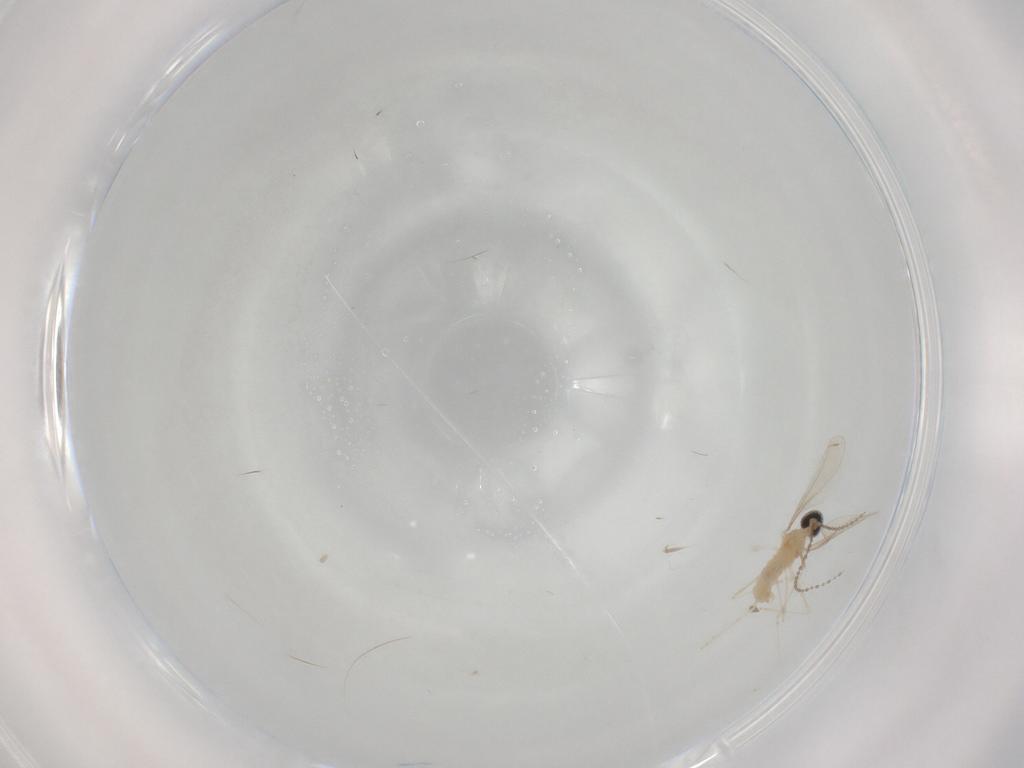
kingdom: Animalia
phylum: Arthropoda
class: Insecta
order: Diptera
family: Cecidomyiidae
